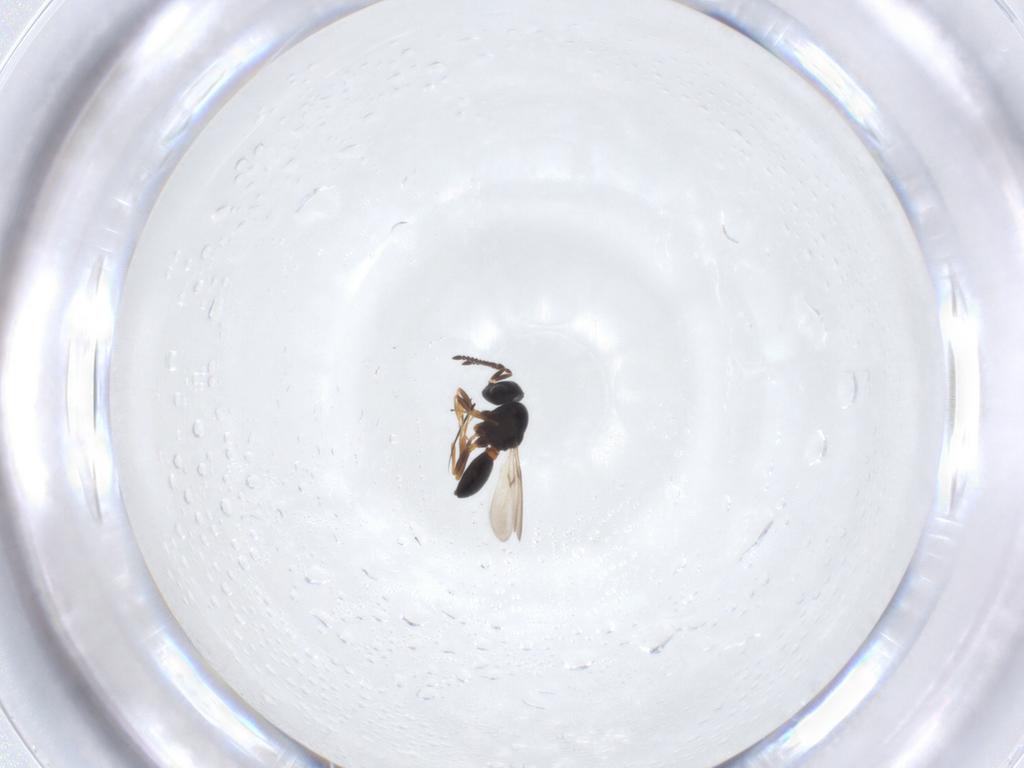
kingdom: Animalia
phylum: Arthropoda
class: Arachnida
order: Araneae
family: Pholcidae
